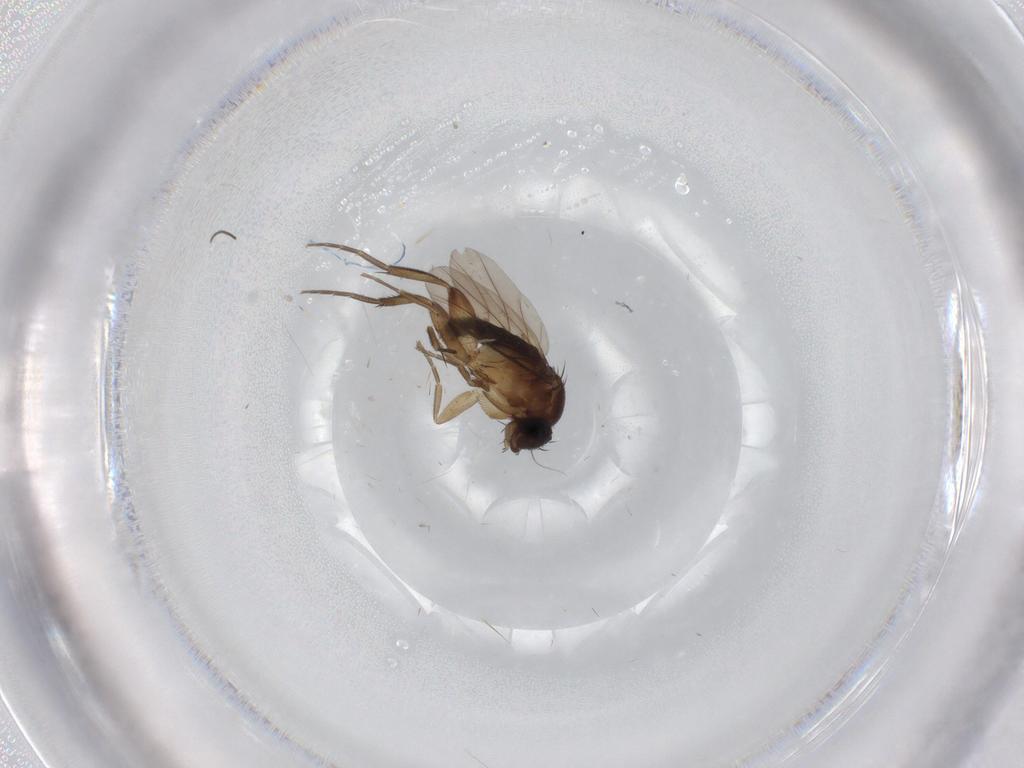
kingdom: Animalia
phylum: Arthropoda
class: Insecta
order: Diptera
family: Phoridae
